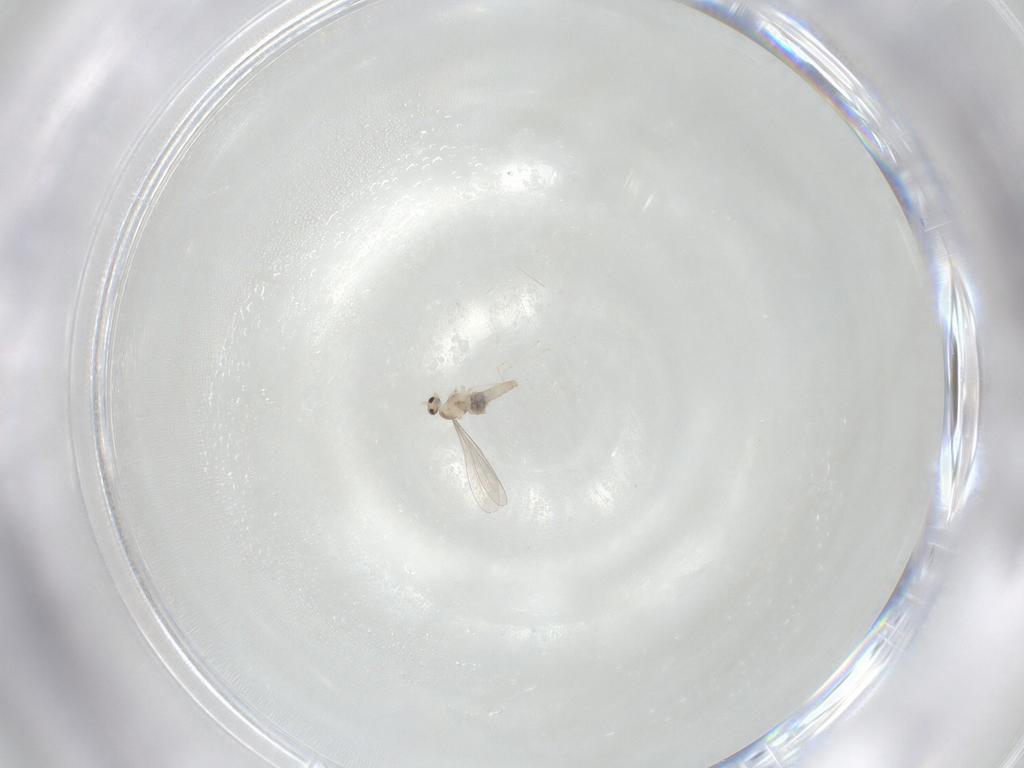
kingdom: Animalia
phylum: Arthropoda
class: Insecta
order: Diptera
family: Cecidomyiidae
